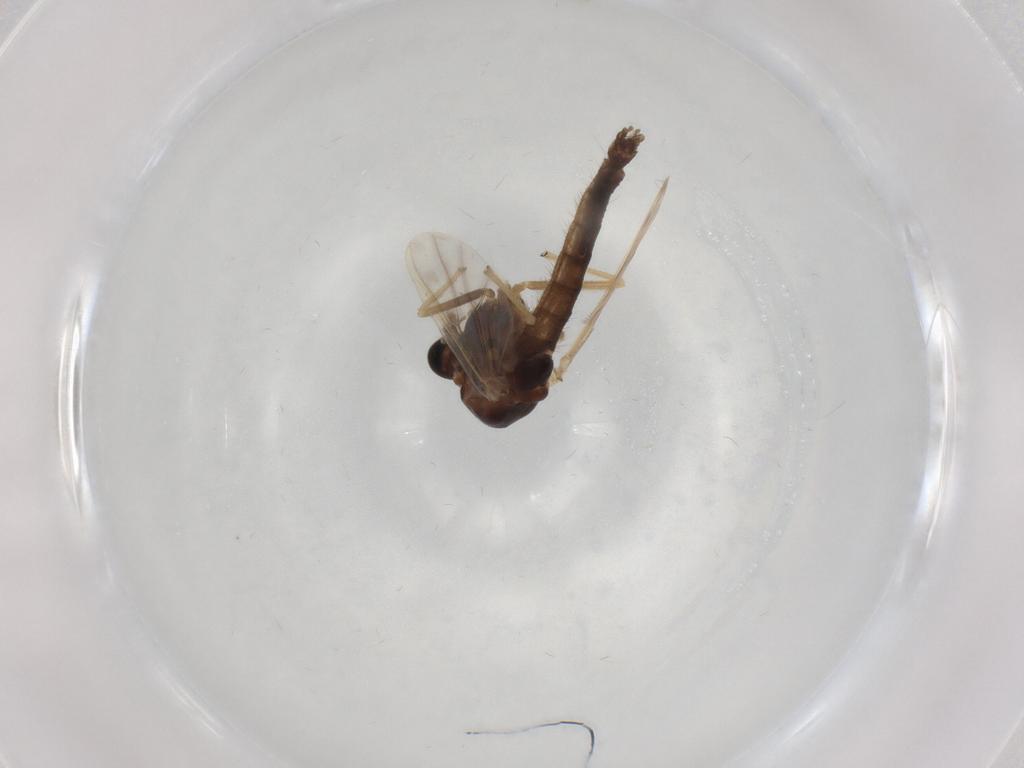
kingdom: Animalia
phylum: Arthropoda
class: Insecta
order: Diptera
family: Chironomidae
